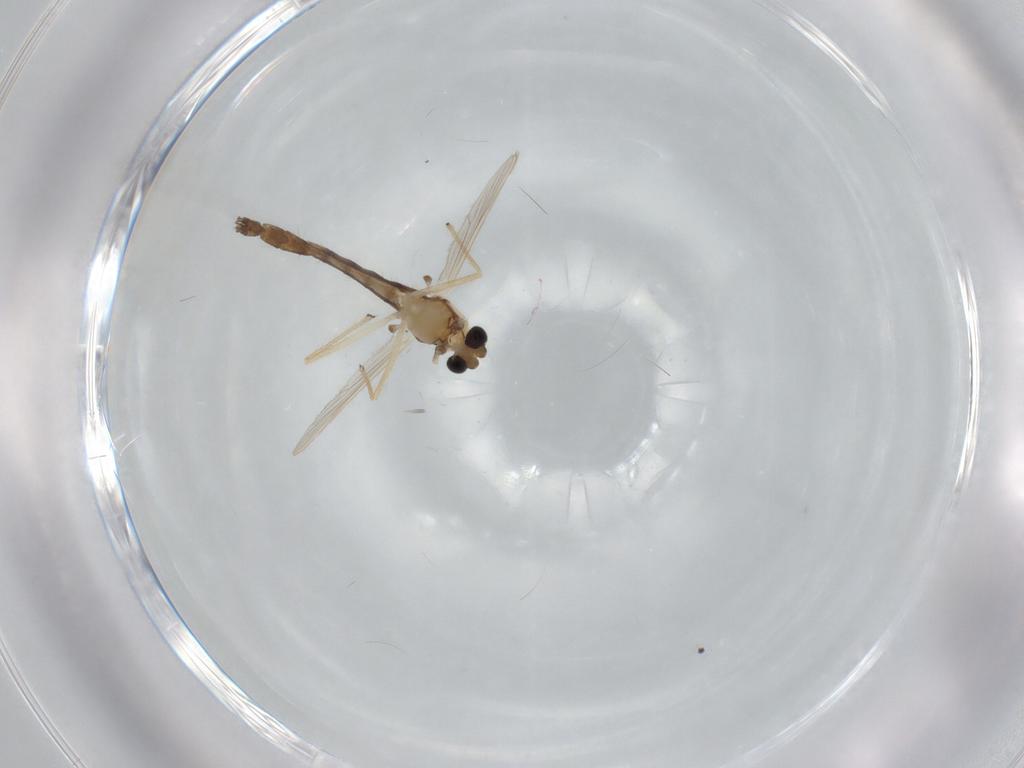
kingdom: Animalia
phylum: Arthropoda
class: Insecta
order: Diptera
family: Chironomidae
